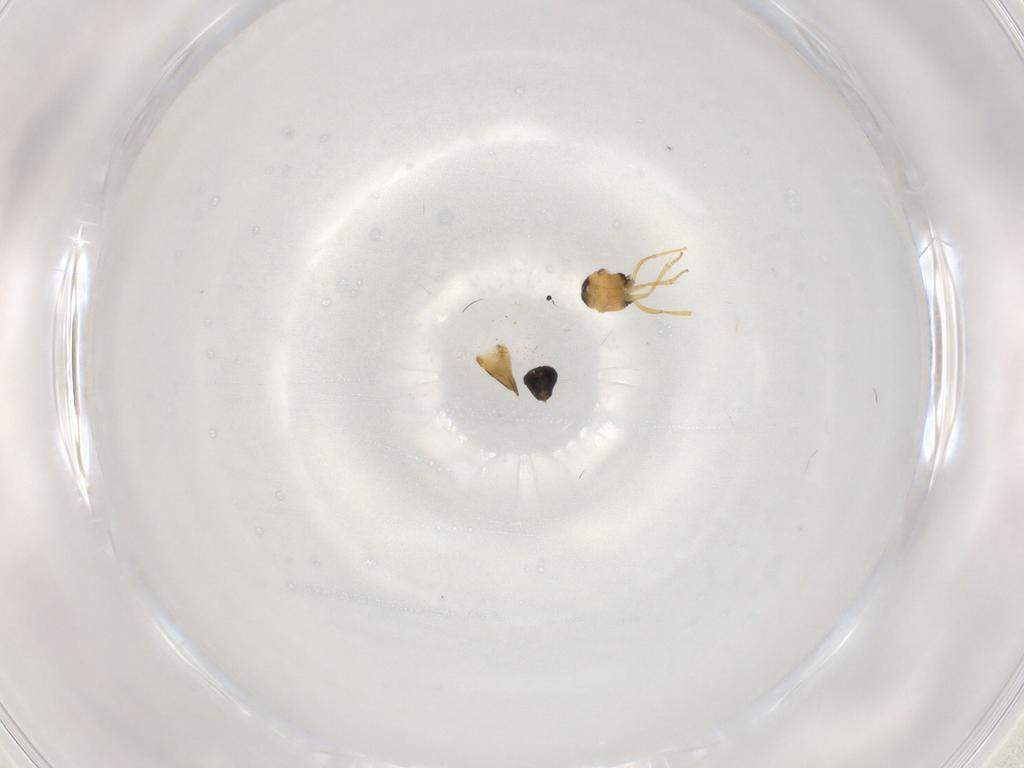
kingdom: Animalia
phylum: Arthropoda
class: Insecta
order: Hymenoptera
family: Encyrtidae
